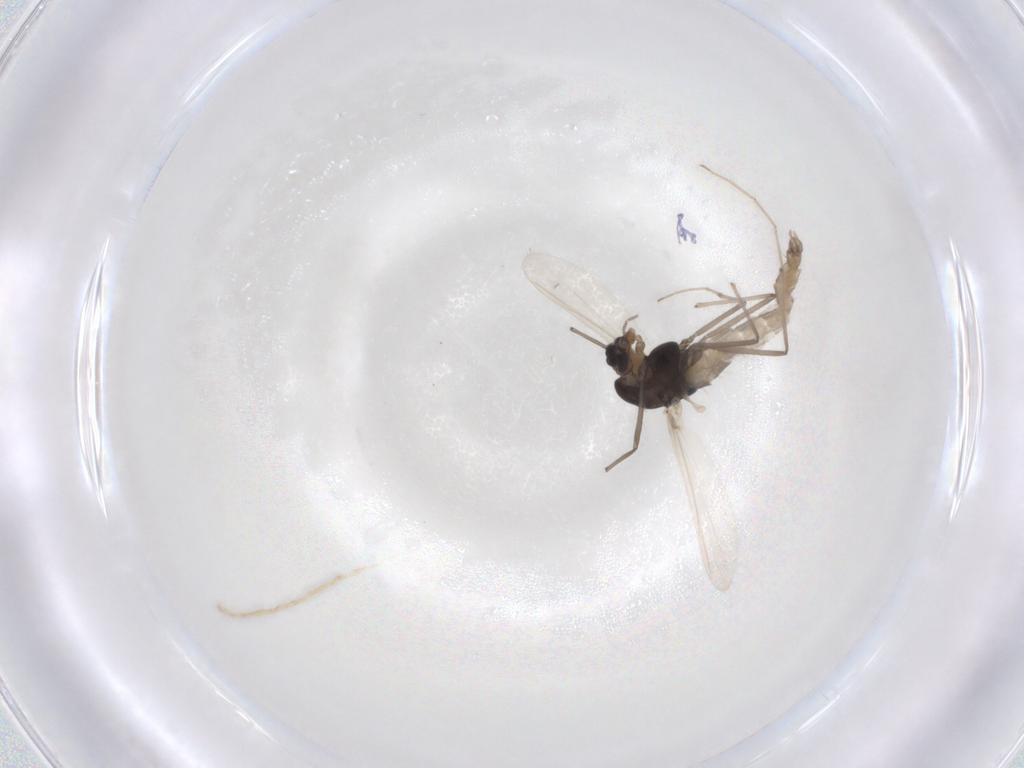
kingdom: Animalia
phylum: Arthropoda
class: Insecta
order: Diptera
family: Chironomidae
